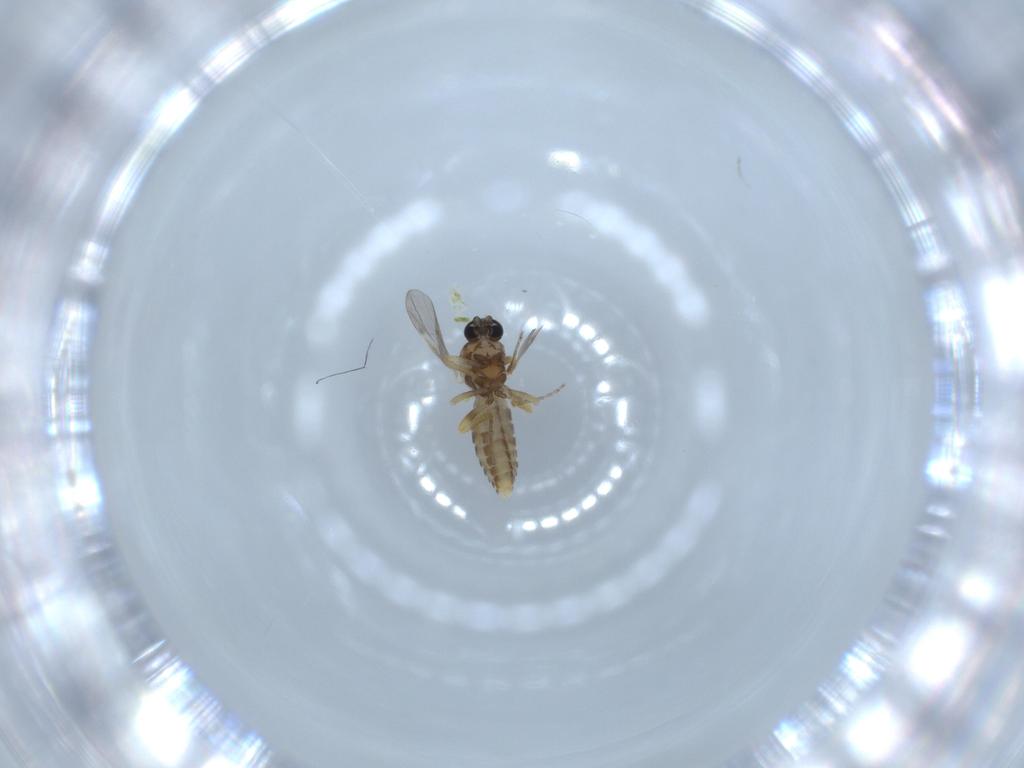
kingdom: Animalia
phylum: Arthropoda
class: Insecta
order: Diptera
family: Ceratopogonidae
